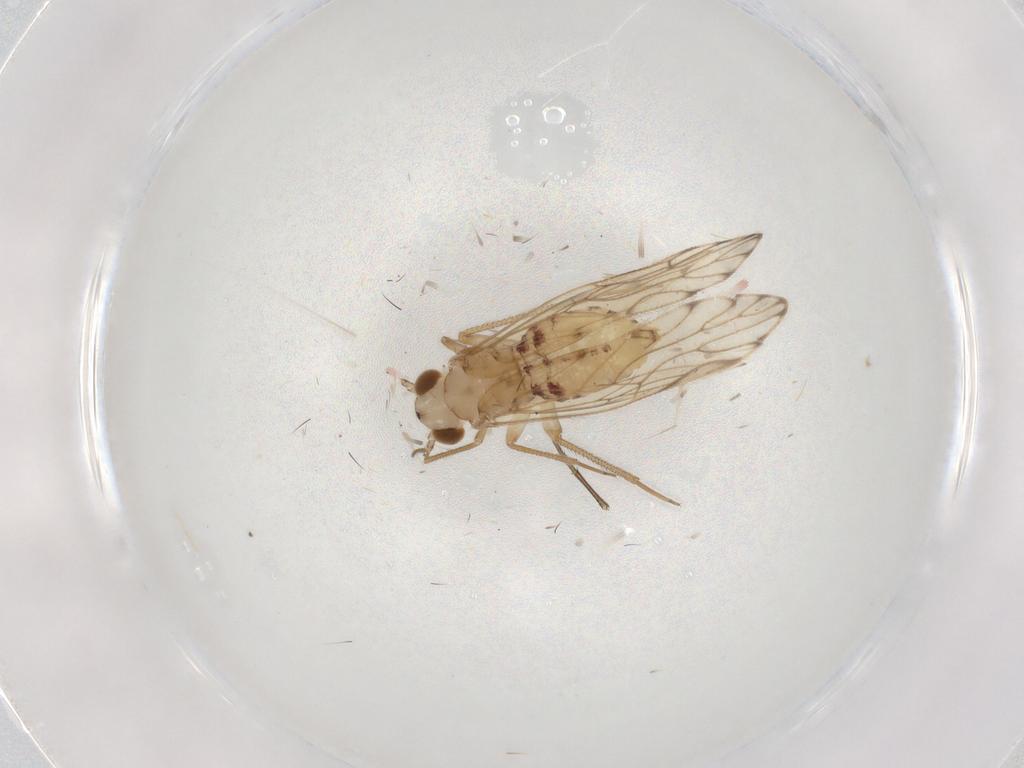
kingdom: Animalia
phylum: Arthropoda
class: Insecta
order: Psocodea
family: Epipsocidae
